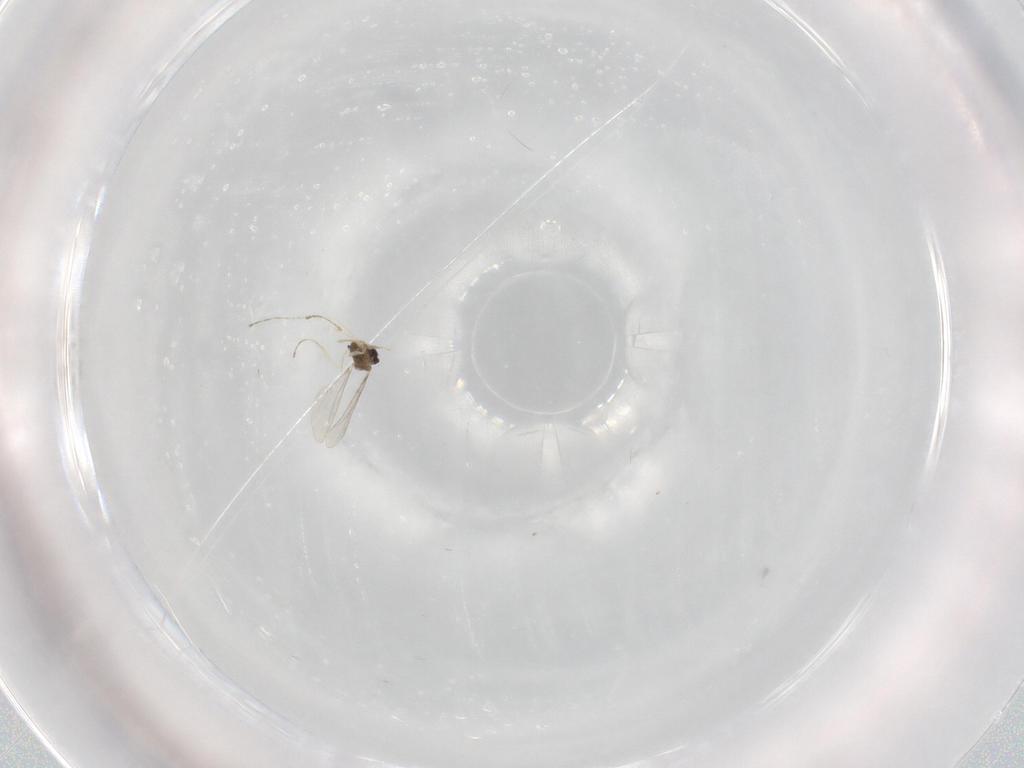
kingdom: Animalia
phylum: Arthropoda
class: Insecta
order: Diptera
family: Cecidomyiidae
